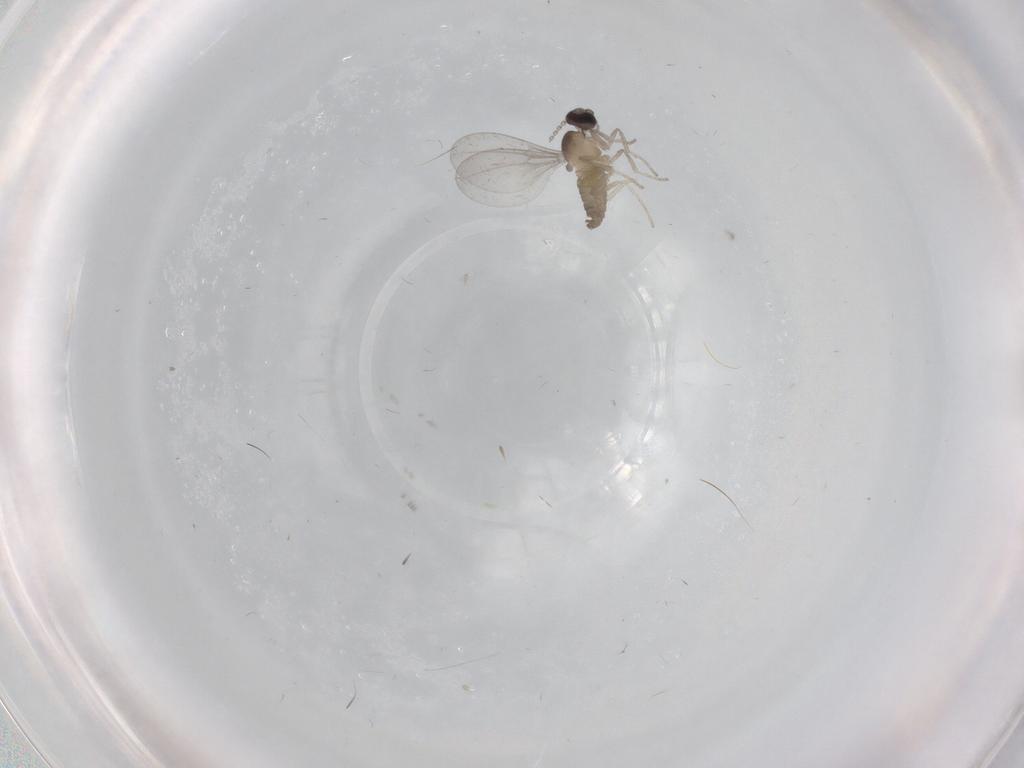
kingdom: Animalia
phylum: Arthropoda
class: Insecta
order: Diptera
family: Cecidomyiidae
